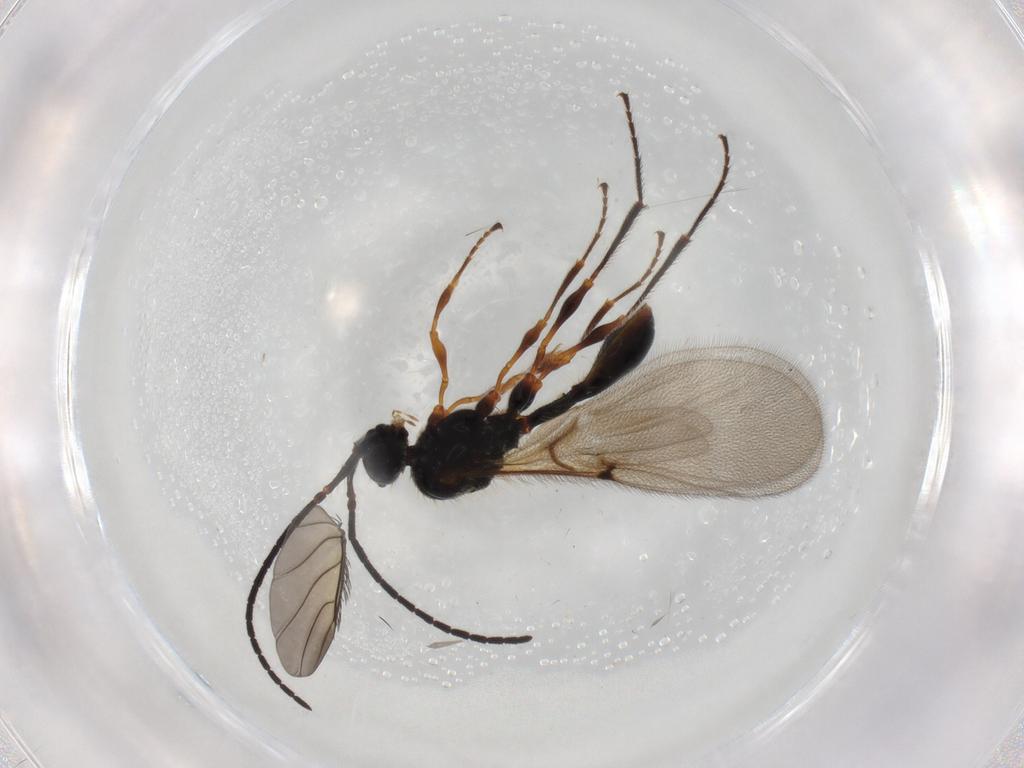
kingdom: Animalia
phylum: Arthropoda
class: Insecta
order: Hymenoptera
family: Diapriidae
